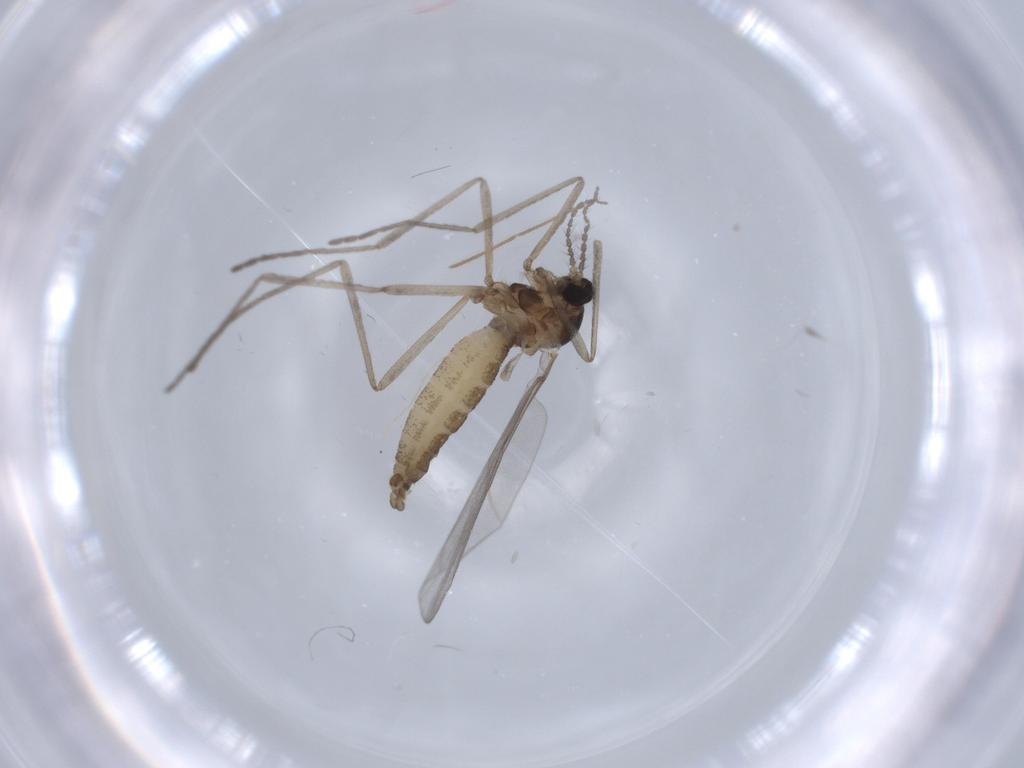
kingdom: Animalia
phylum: Arthropoda
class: Insecta
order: Diptera
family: Cecidomyiidae
